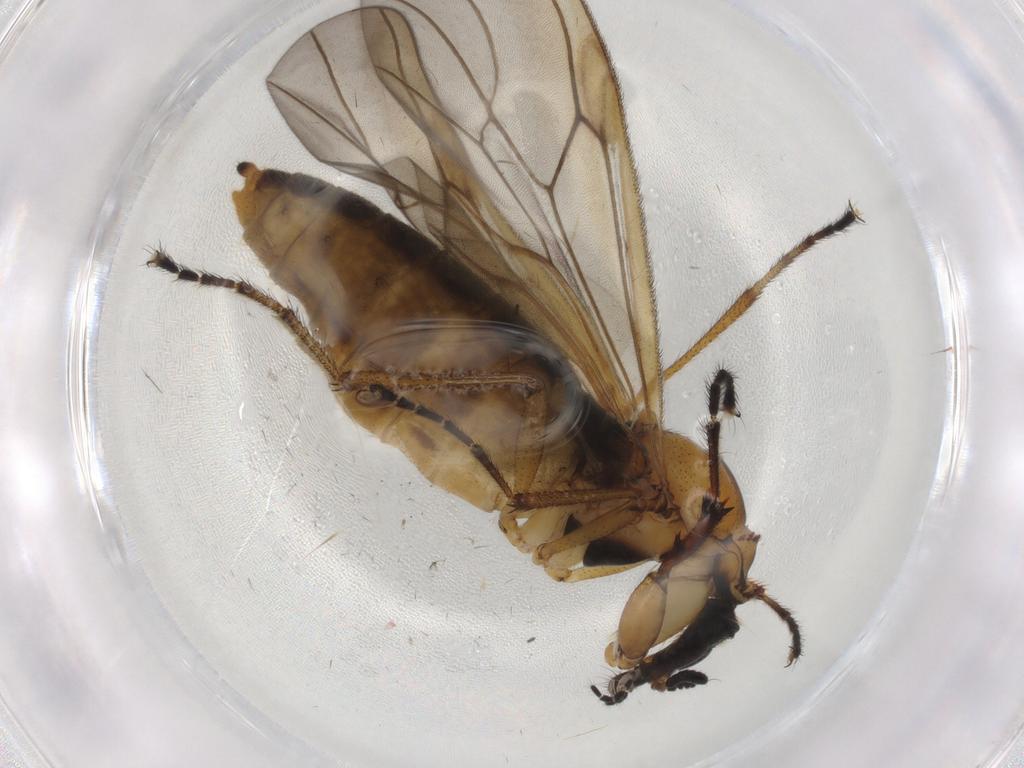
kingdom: Animalia
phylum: Arthropoda
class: Insecta
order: Diptera
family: Bibionidae
